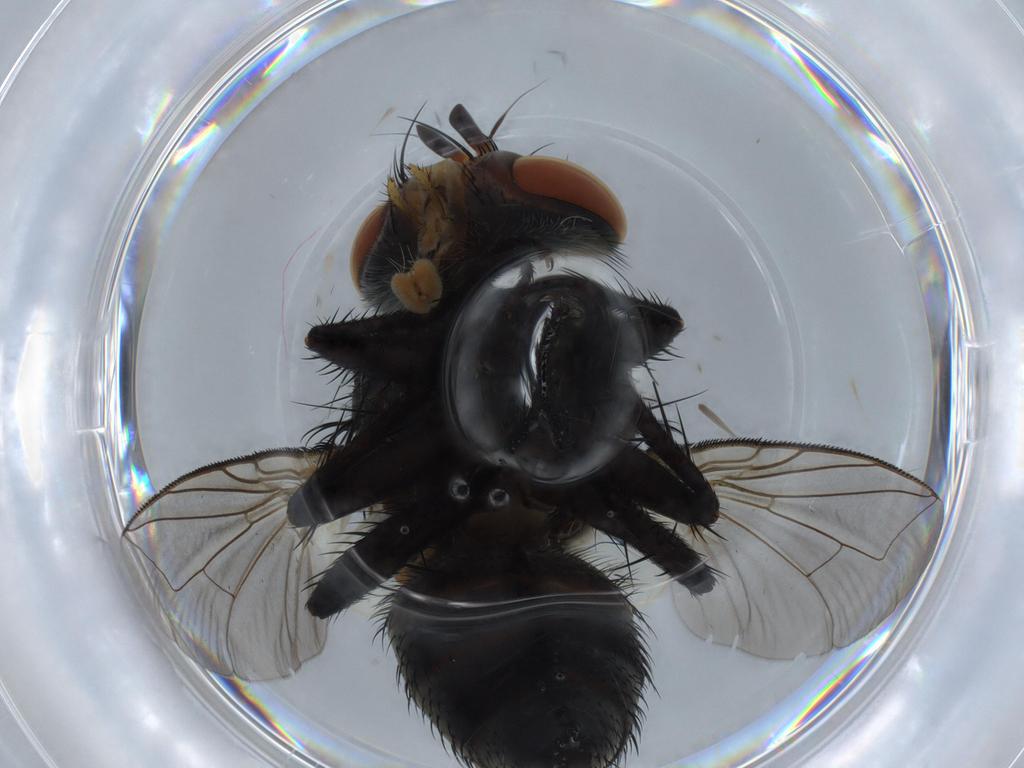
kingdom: Animalia
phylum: Arthropoda
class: Insecta
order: Diptera
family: Tachinidae
